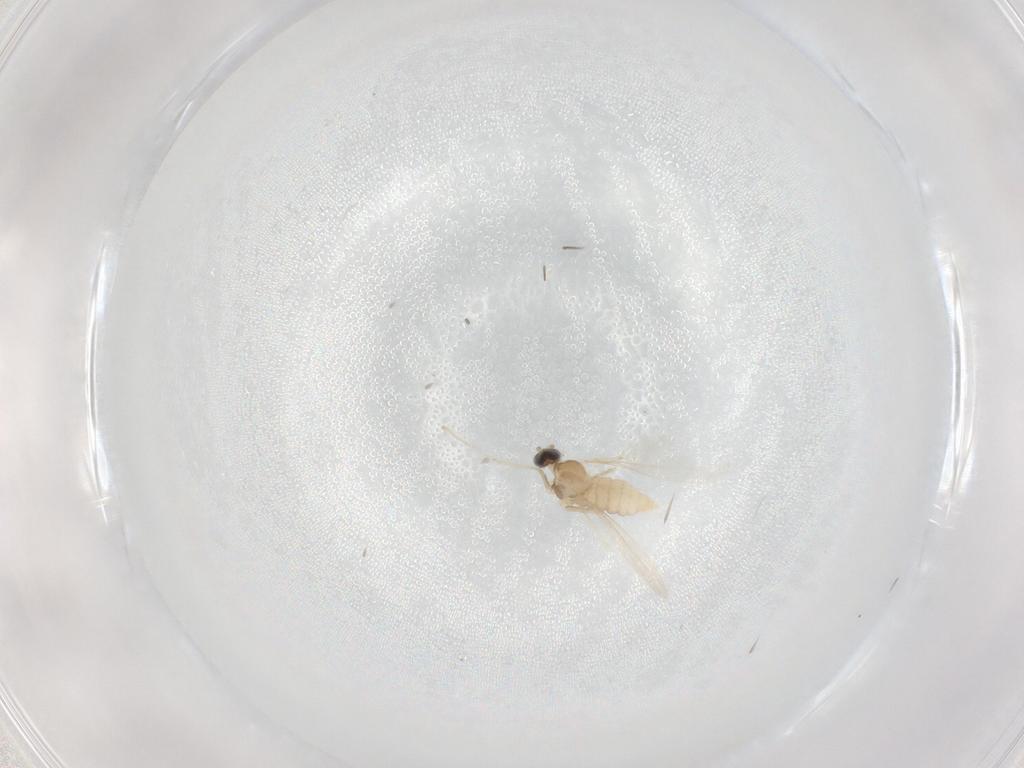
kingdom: Animalia
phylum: Arthropoda
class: Insecta
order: Diptera
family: Cecidomyiidae
